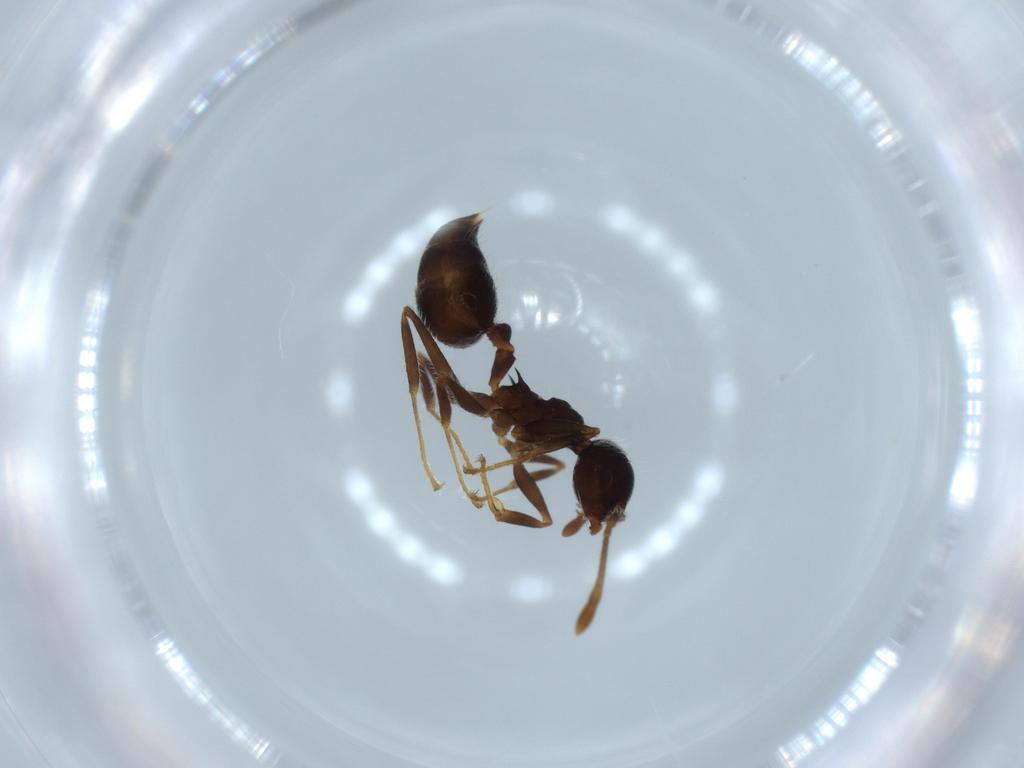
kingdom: Animalia
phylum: Arthropoda
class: Insecta
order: Hymenoptera
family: Formicidae
